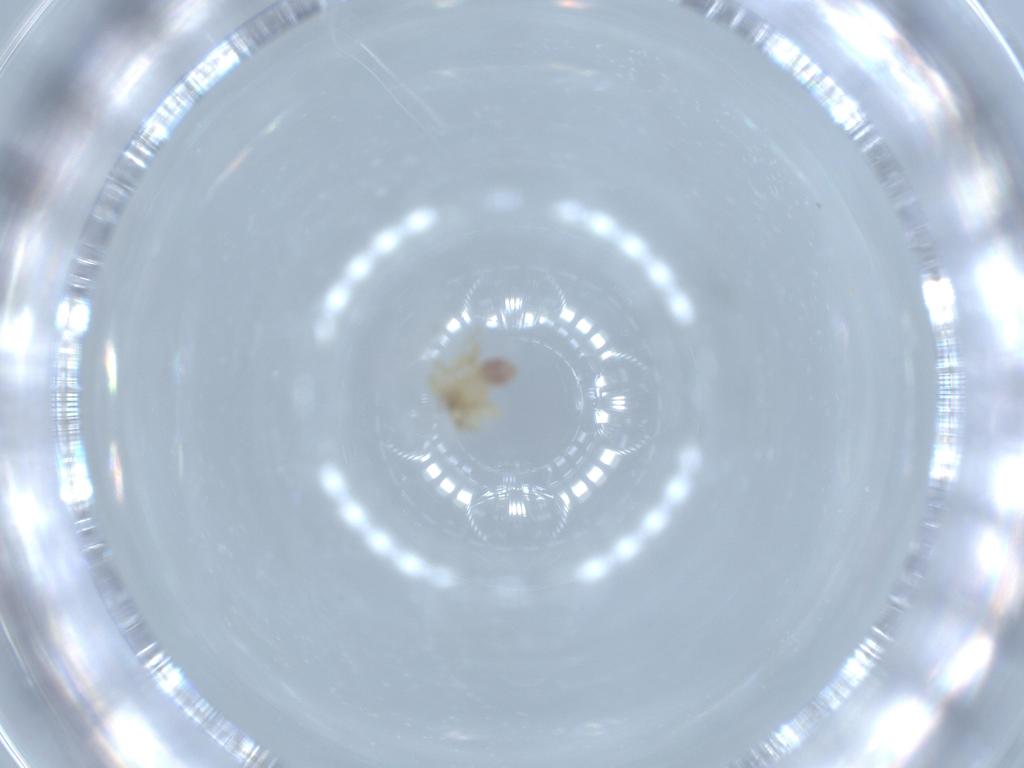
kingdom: Animalia
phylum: Arthropoda
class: Arachnida
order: Araneae
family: Oonopidae
